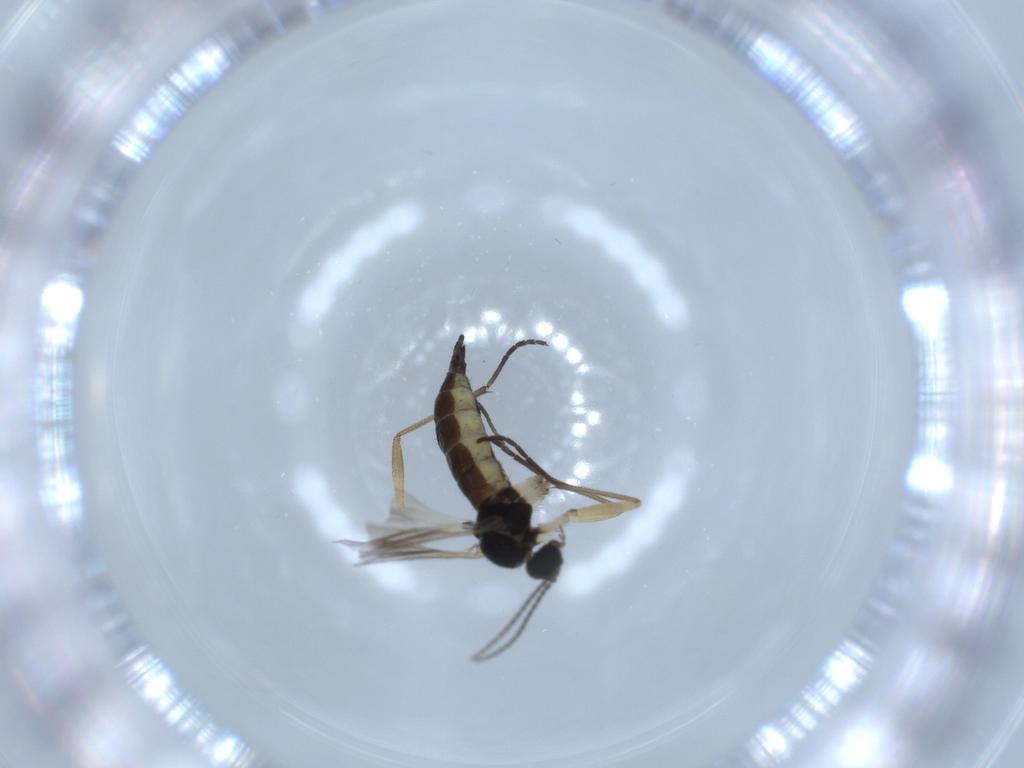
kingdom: Animalia
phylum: Arthropoda
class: Insecta
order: Diptera
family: Sciaridae
